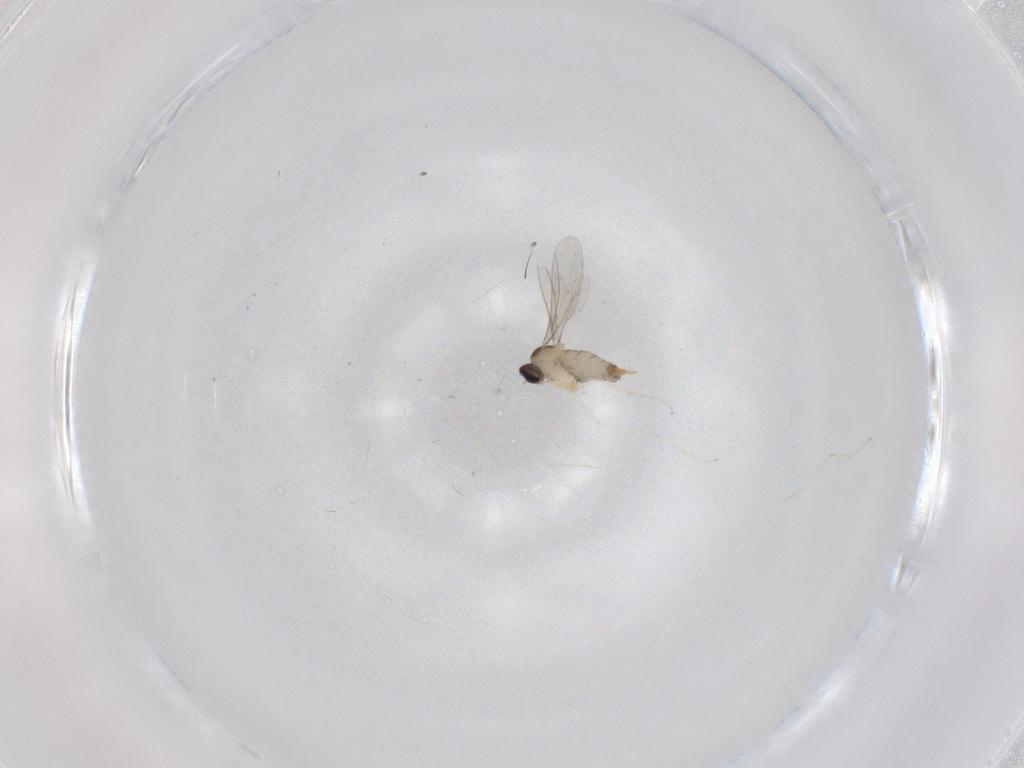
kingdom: Animalia
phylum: Arthropoda
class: Insecta
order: Diptera
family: Cecidomyiidae
